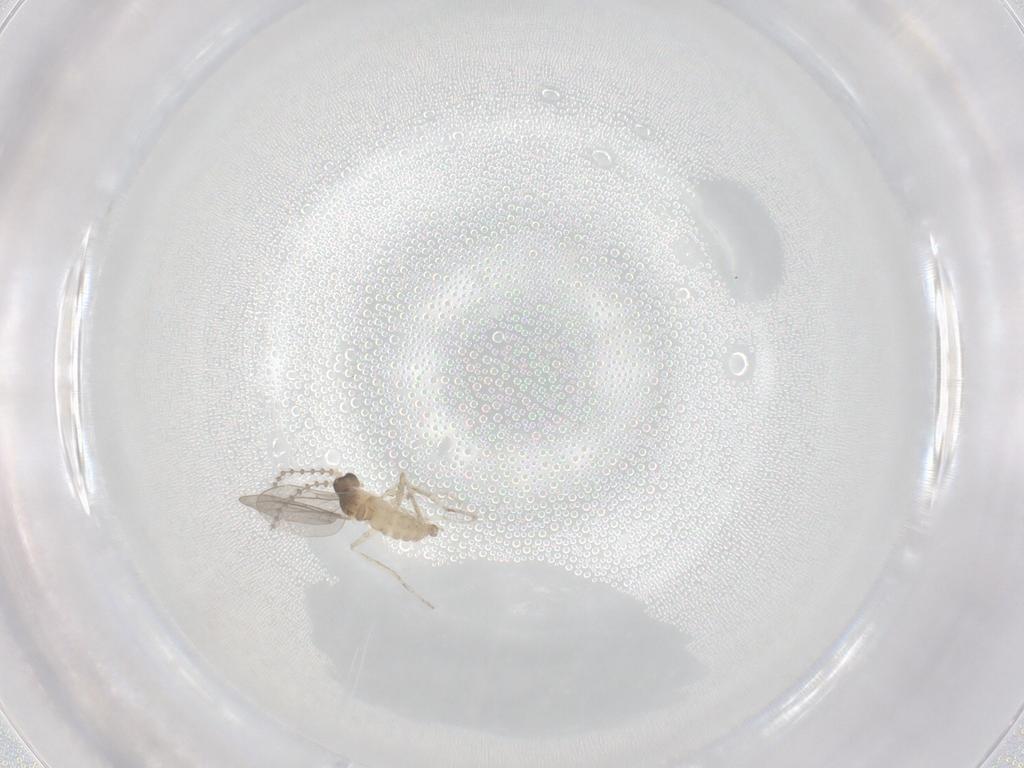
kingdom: Animalia
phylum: Arthropoda
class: Insecta
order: Diptera
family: Cecidomyiidae
